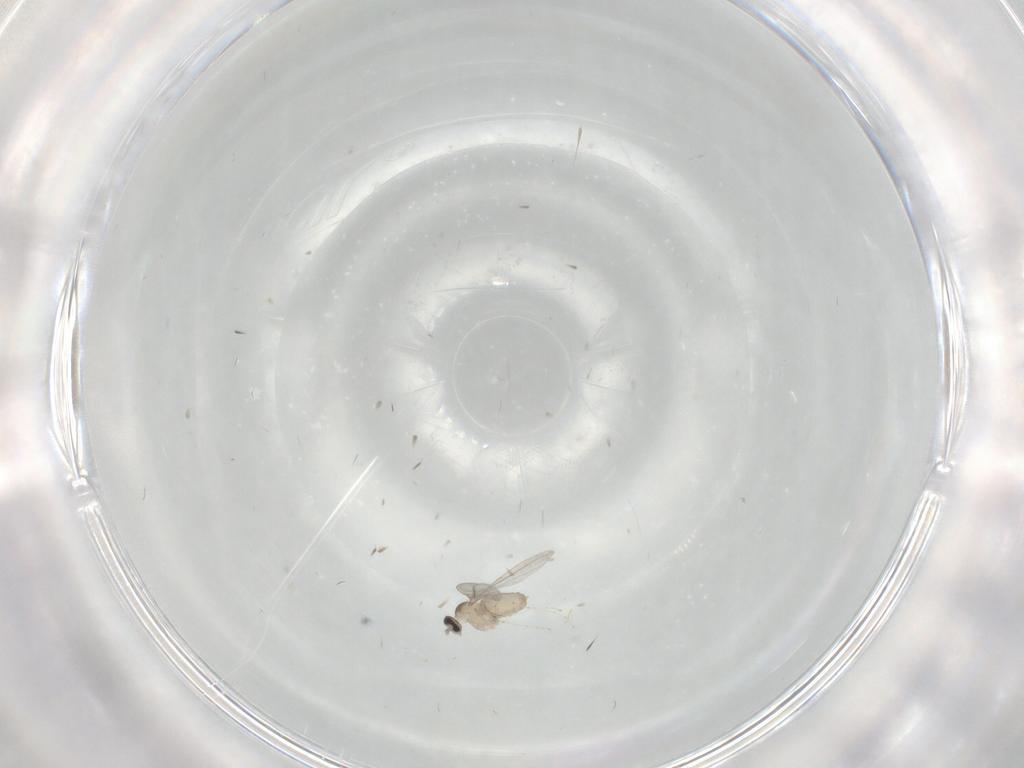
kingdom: Animalia
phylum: Arthropoda
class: Insecta
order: Diptera
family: Cecidomyiidae
